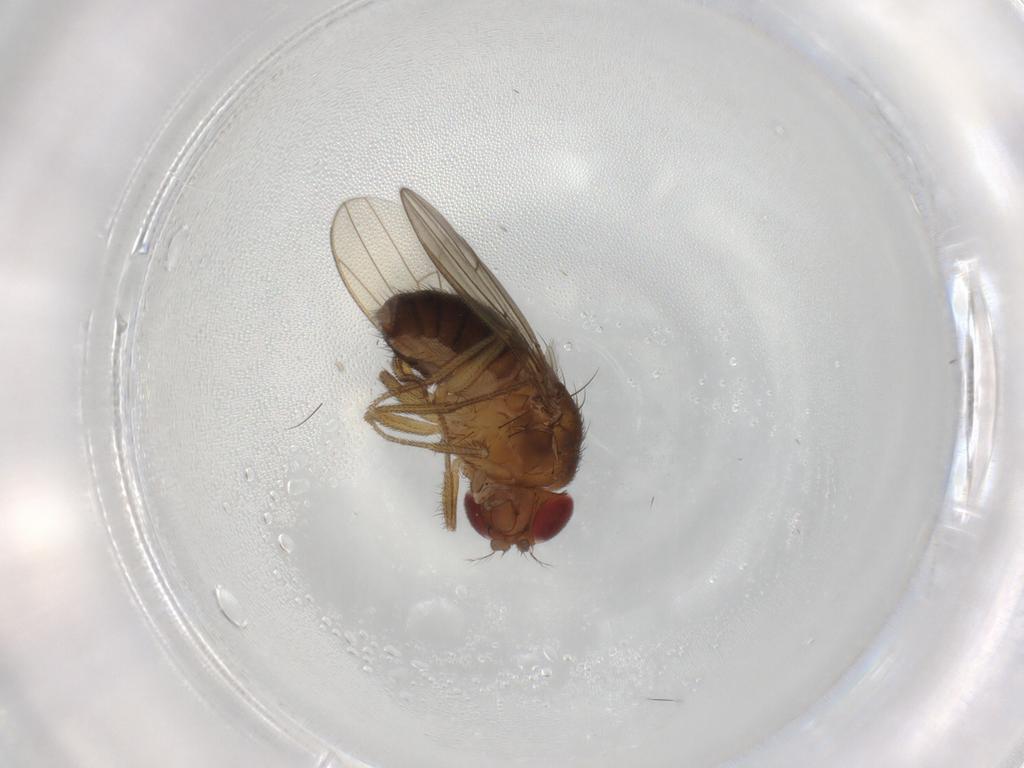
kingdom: Animalia
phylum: Arthropoda
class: Insecta
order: Diptera
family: Drosophilidae
